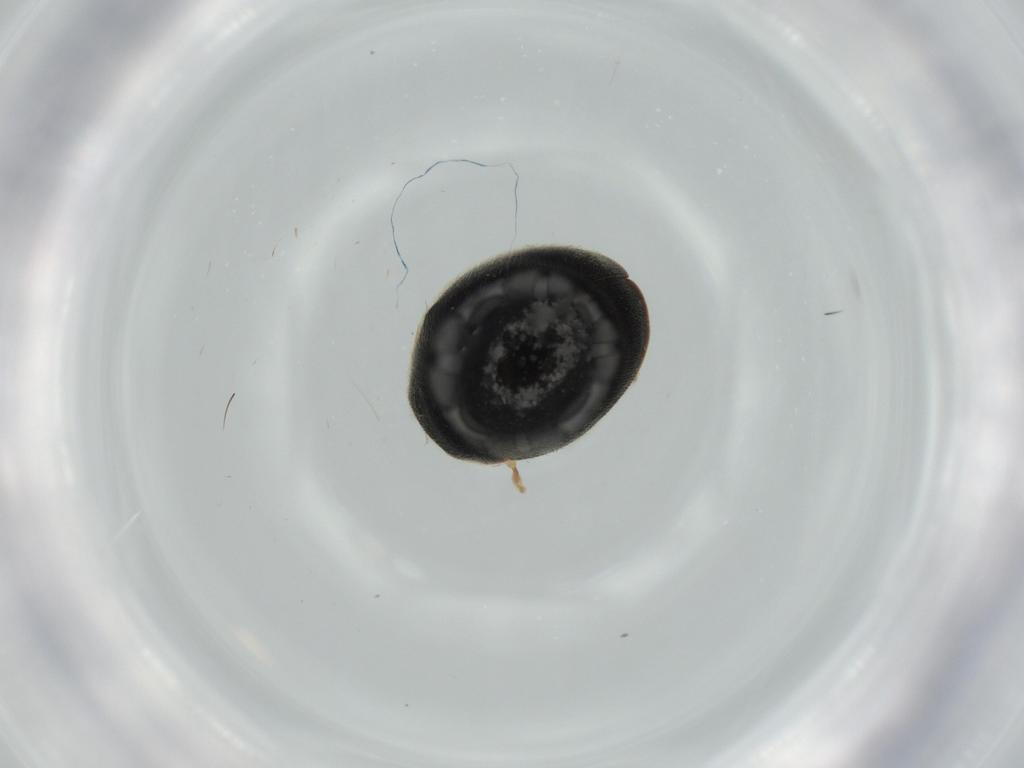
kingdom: Animalia
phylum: Arthropoda
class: Insecta
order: Coleoptera
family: Coccinellidae
